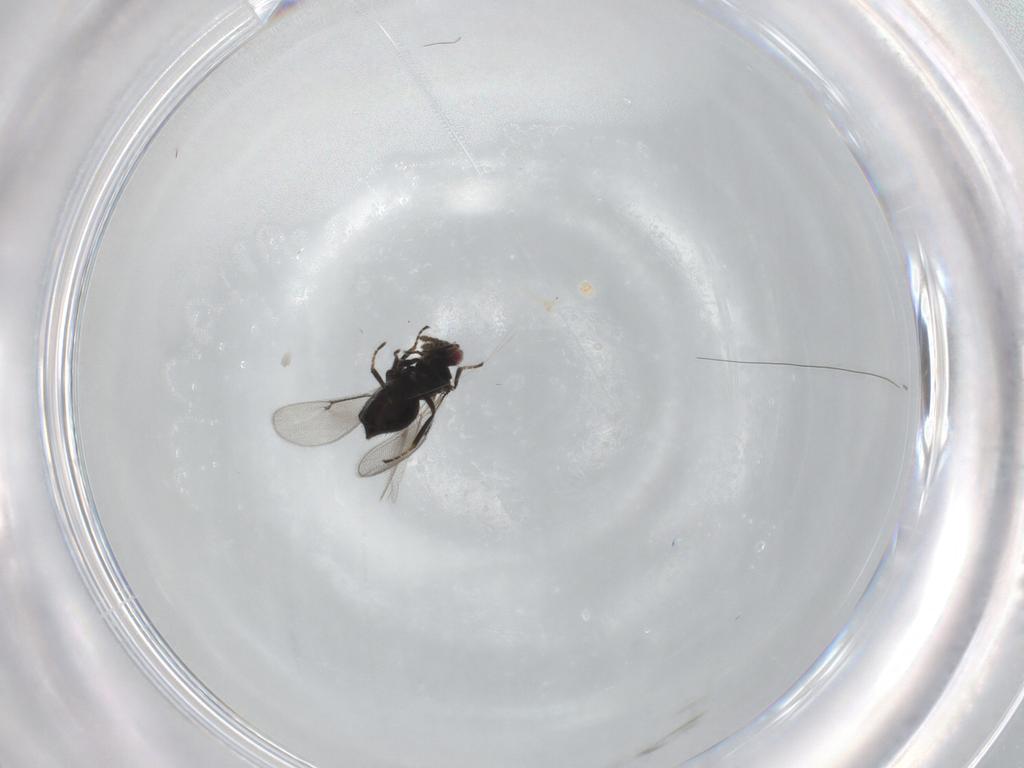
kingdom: Animalia
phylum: Arthropoda
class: Insecta
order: Hymenoptera
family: Eulophidae
